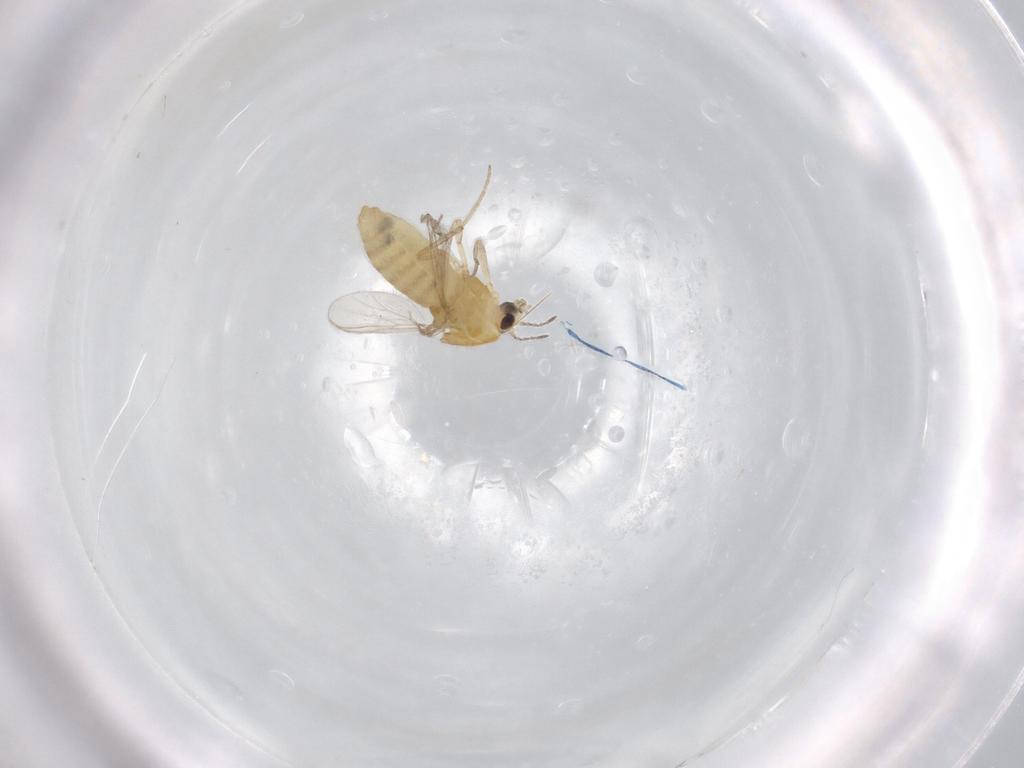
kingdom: Animalia
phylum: Arthropoda
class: Insecta
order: Diptera
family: Chironomidae
